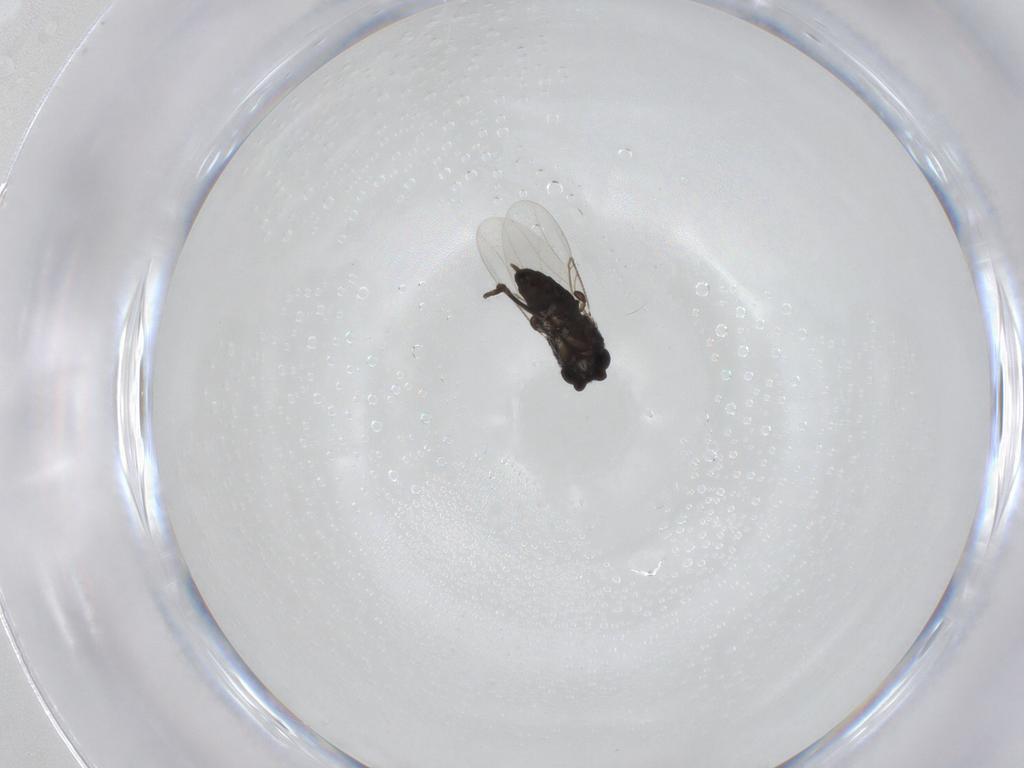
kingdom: Animalia
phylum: Arthropoda
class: Insecta
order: Diptera
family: Phoridae
